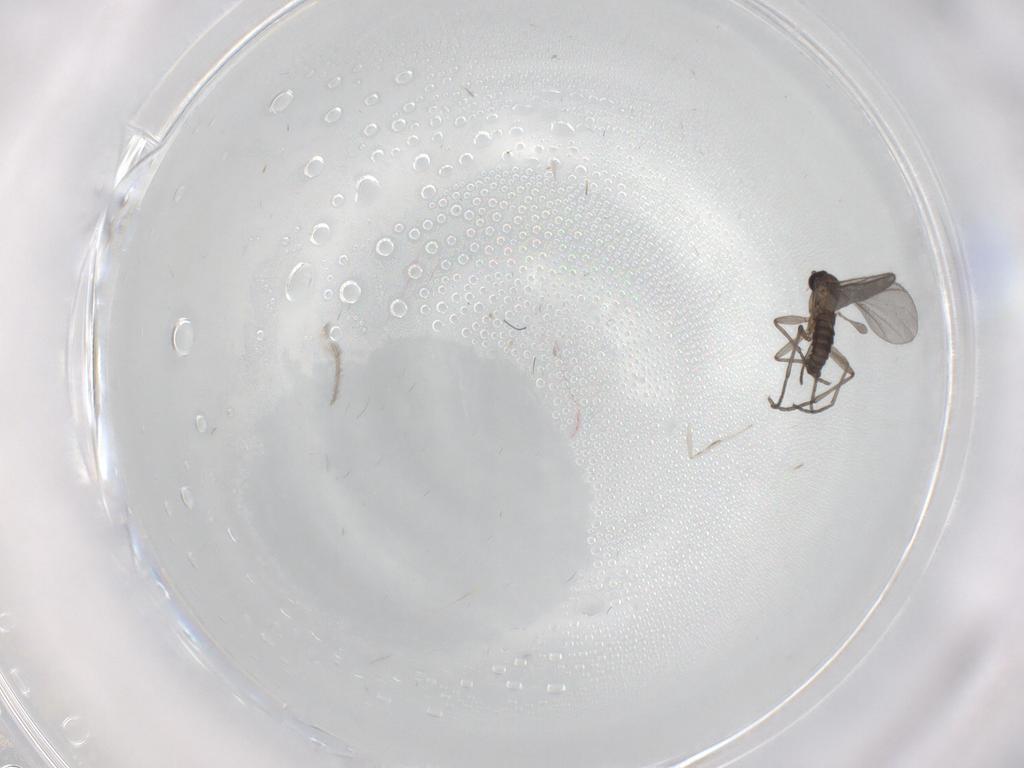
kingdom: Animalia
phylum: Arthropoda
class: Insecta
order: Diptera
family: Sciaridae
